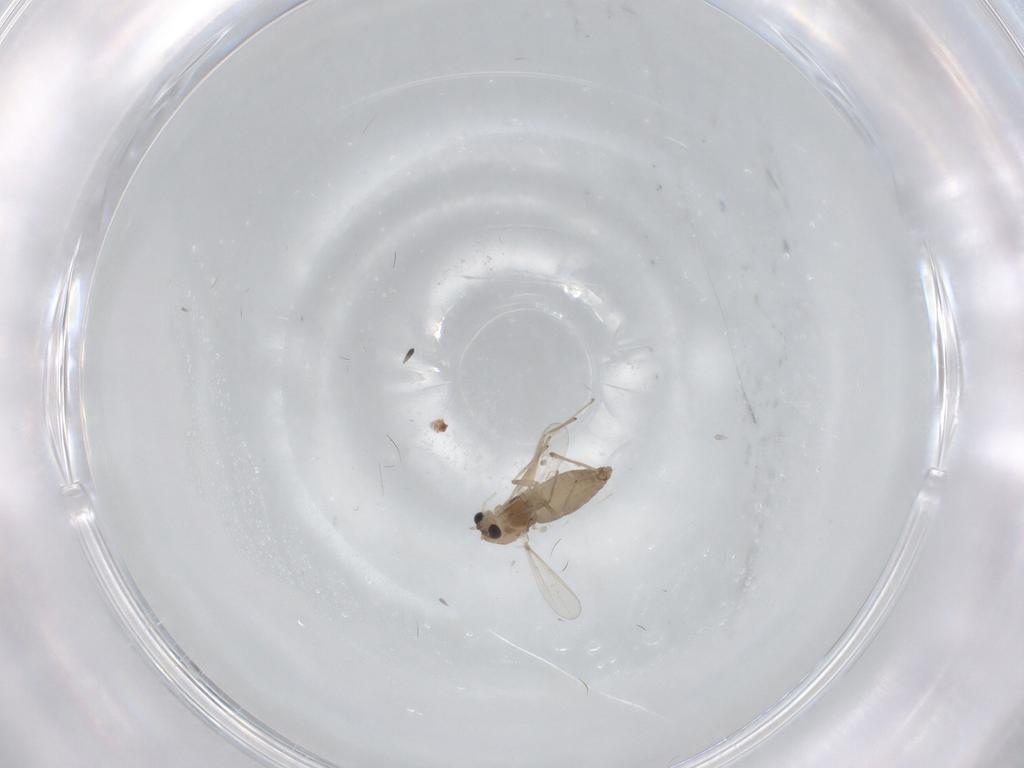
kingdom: Animalia
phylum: Arthropoda
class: Insecta
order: Diptera
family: Chironomidae
